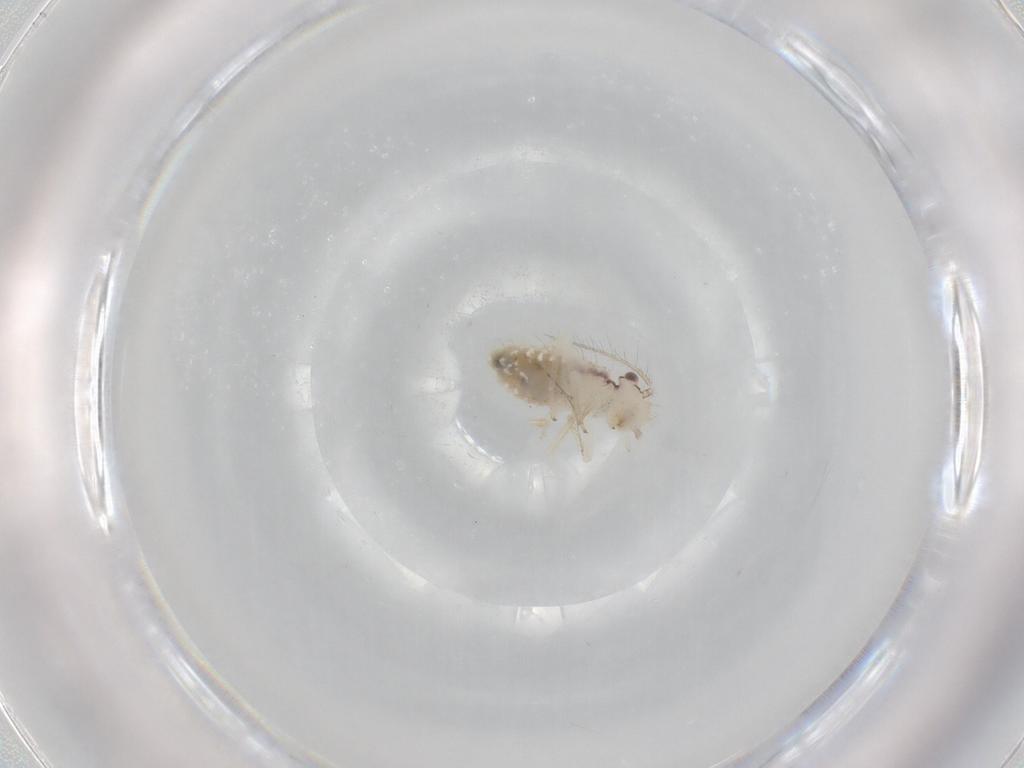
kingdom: Animalia
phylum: Arthropoda
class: Insecta
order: Psocodea
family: Pseudocaeciliidae
